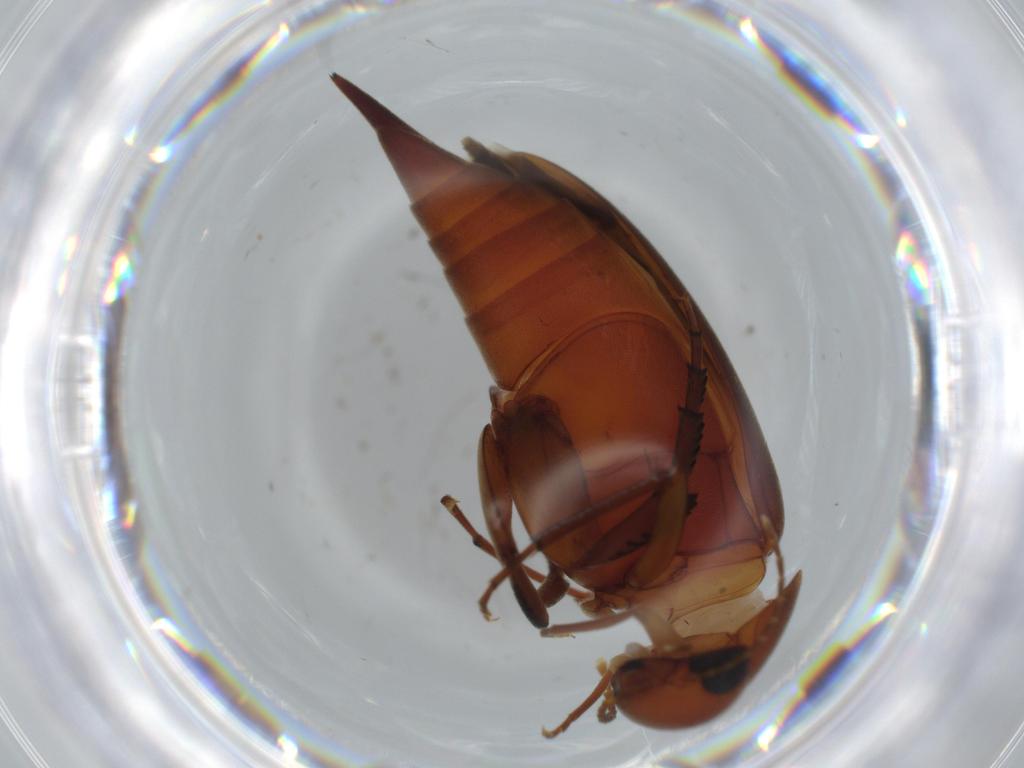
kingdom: Animalia
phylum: Arthropoda
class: Insecta
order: Coleoptera
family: Mordellidae
